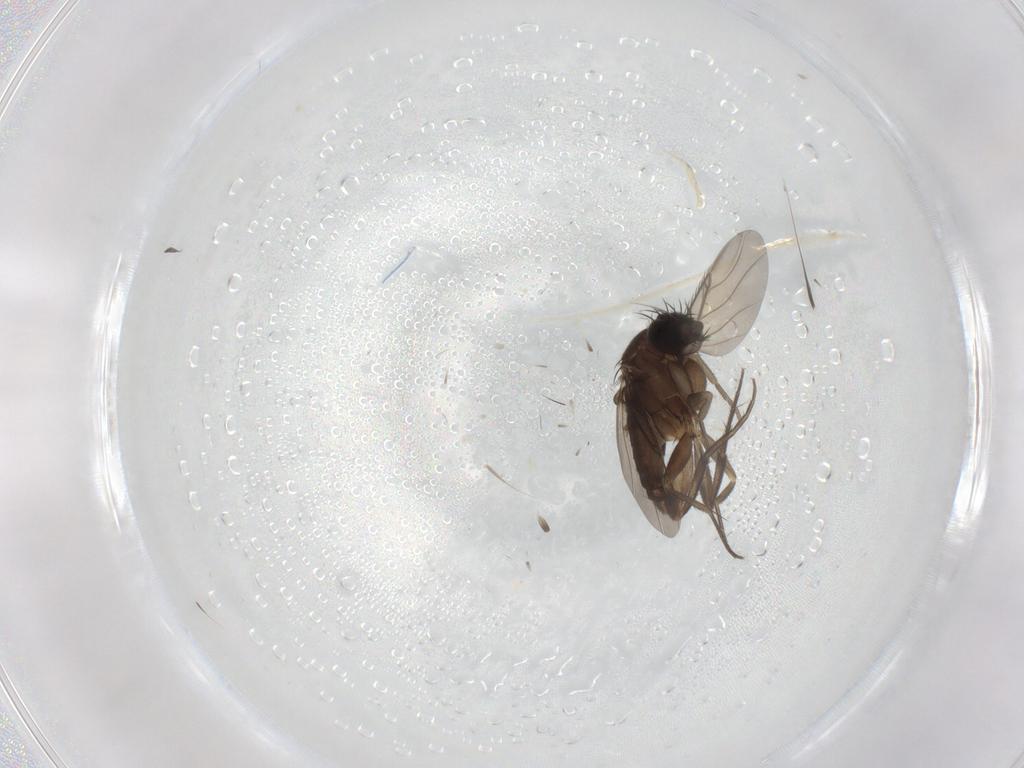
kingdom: Animalia
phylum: Arthropoda
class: Insecta
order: Diptera
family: Phoridae
